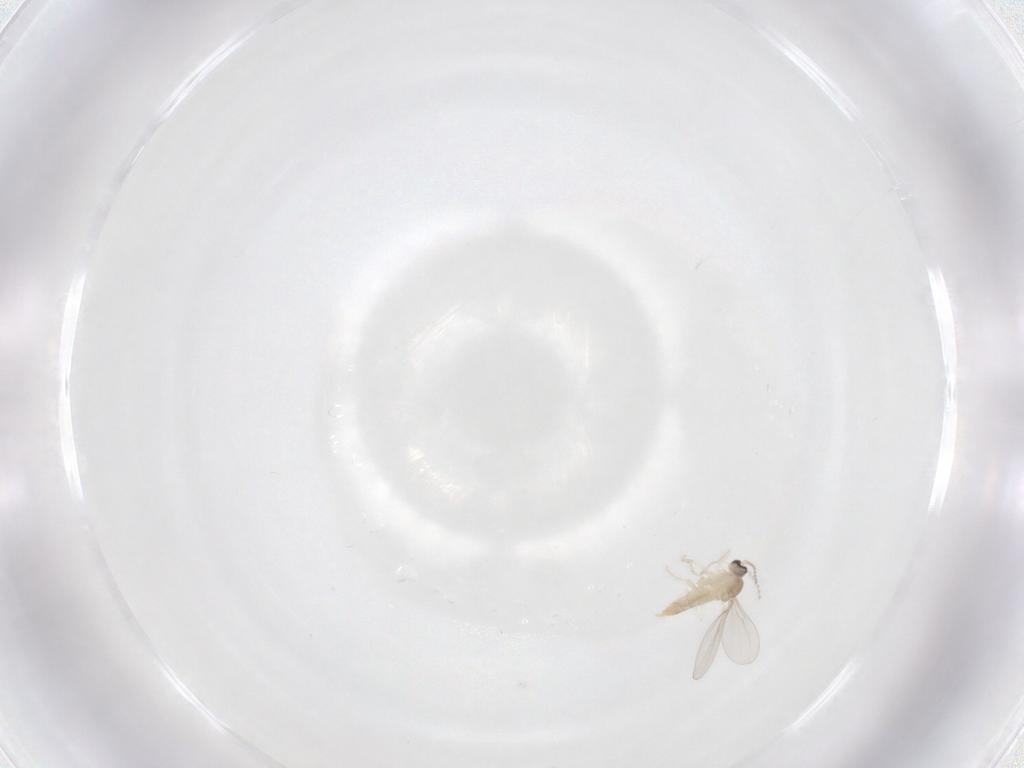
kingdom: Animalia
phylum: Arthropoda
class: Insecta
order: Diptera
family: Cecidomyiidae
